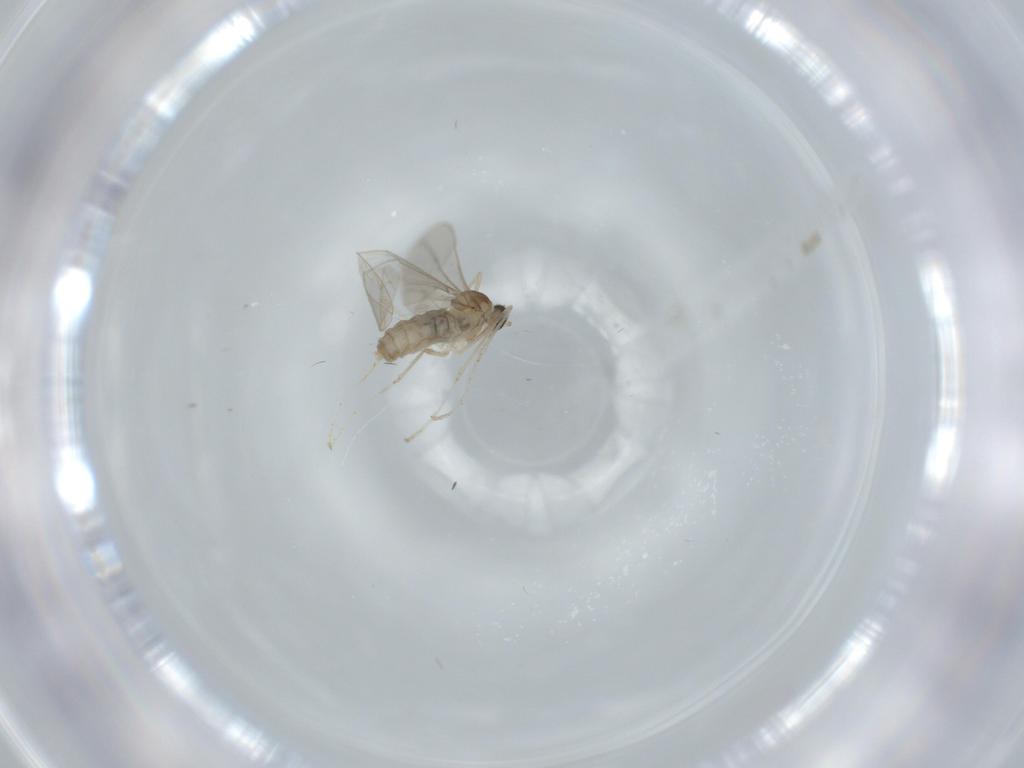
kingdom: Animalia
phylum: Arthropoda
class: Insecta
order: Diptera
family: Cecidomyiidae
